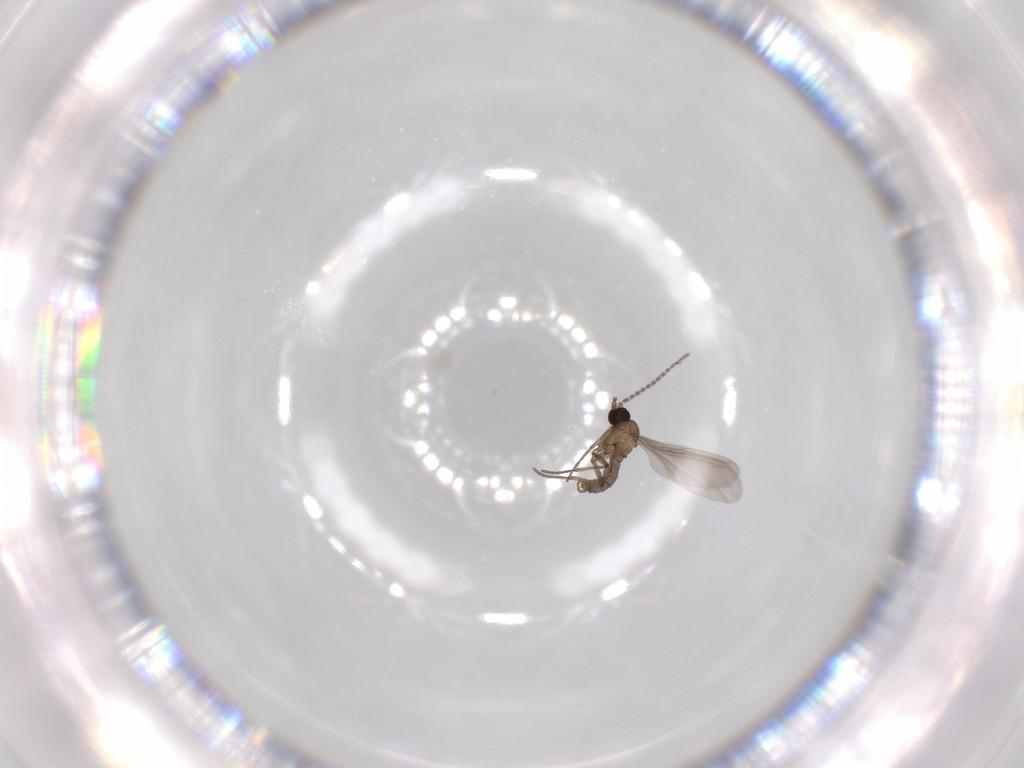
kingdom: Animalia
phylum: Arthropoda
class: Insecta
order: Diptera
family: Sciaridae
